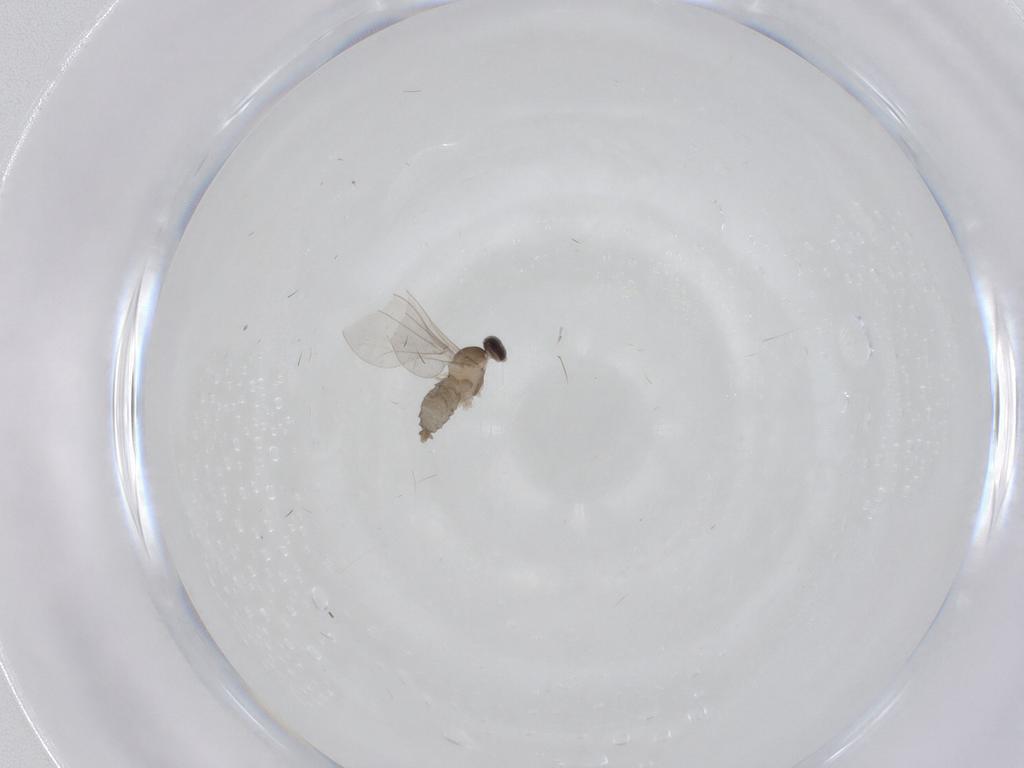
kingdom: Animalia
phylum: Arthropoda
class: Insecta
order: Diptera
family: Cecidomyiidae
